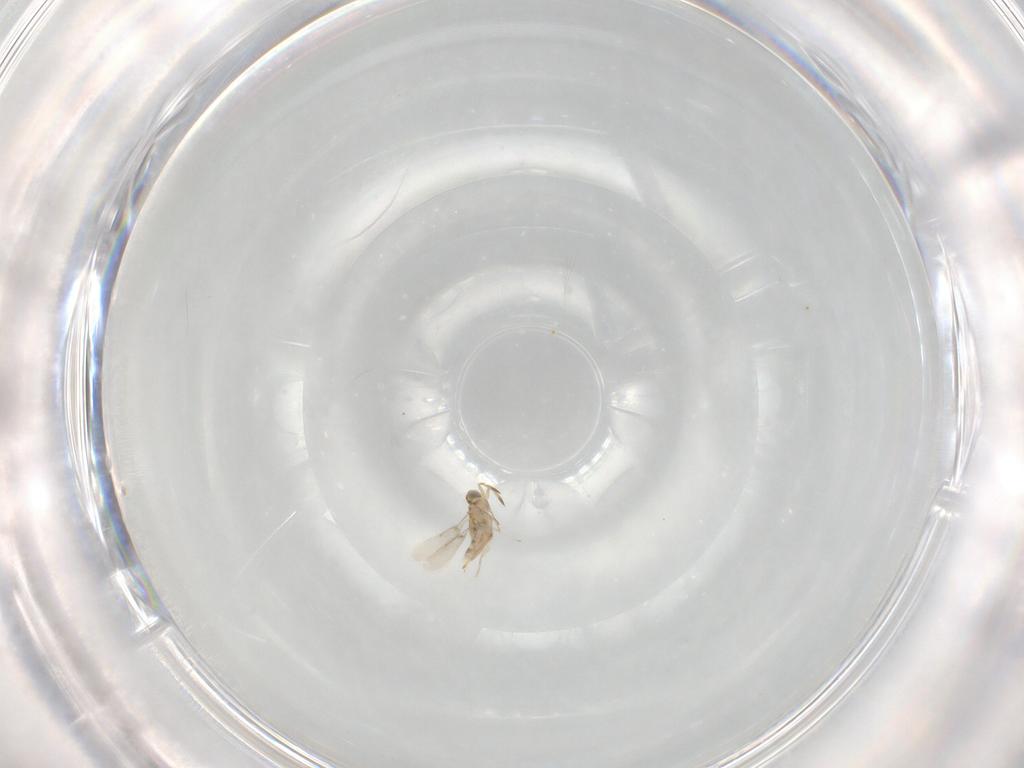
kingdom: Animalia
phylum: Arthropoda
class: Insecta
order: Hymenoptera
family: Aphelinidae
